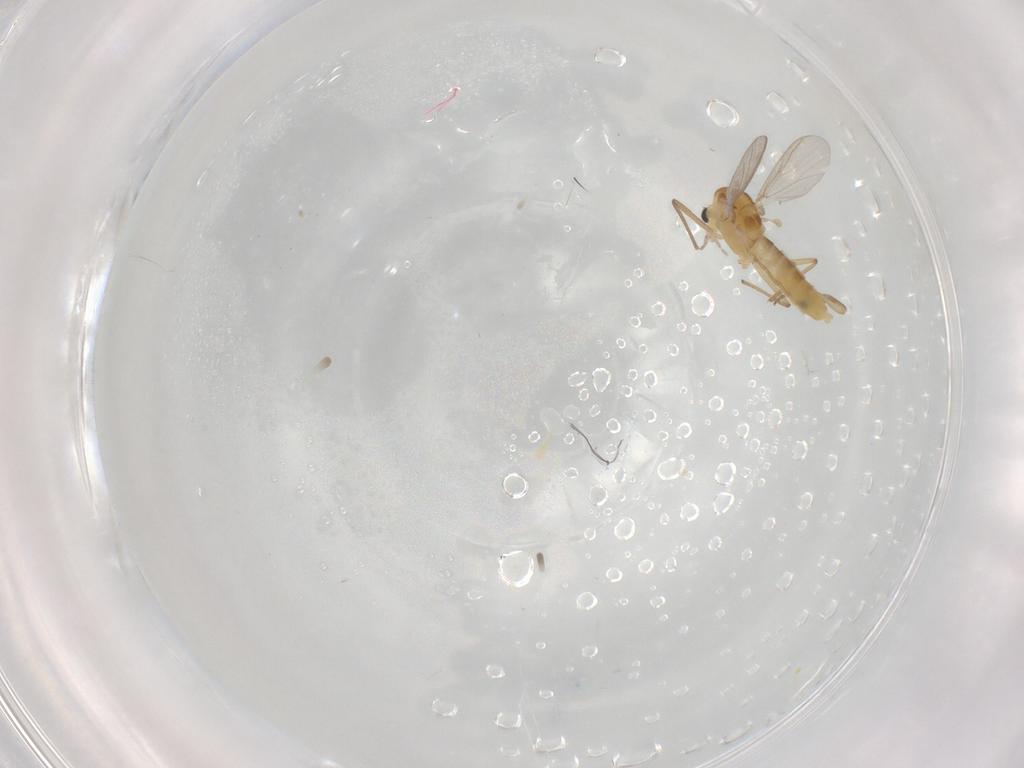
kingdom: Animalia
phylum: Arthropoda
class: Insecta
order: Diptera
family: Chironomidae
